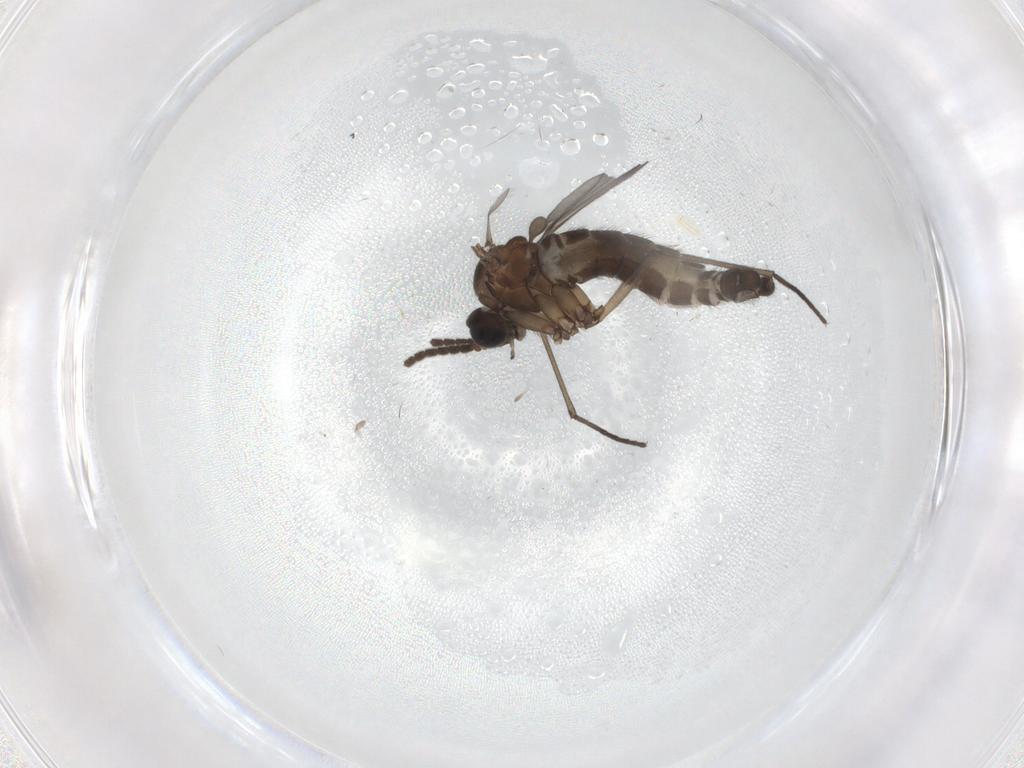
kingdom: Animalia
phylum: Arthropoda
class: Insecta
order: Diptera
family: Sciaridae
